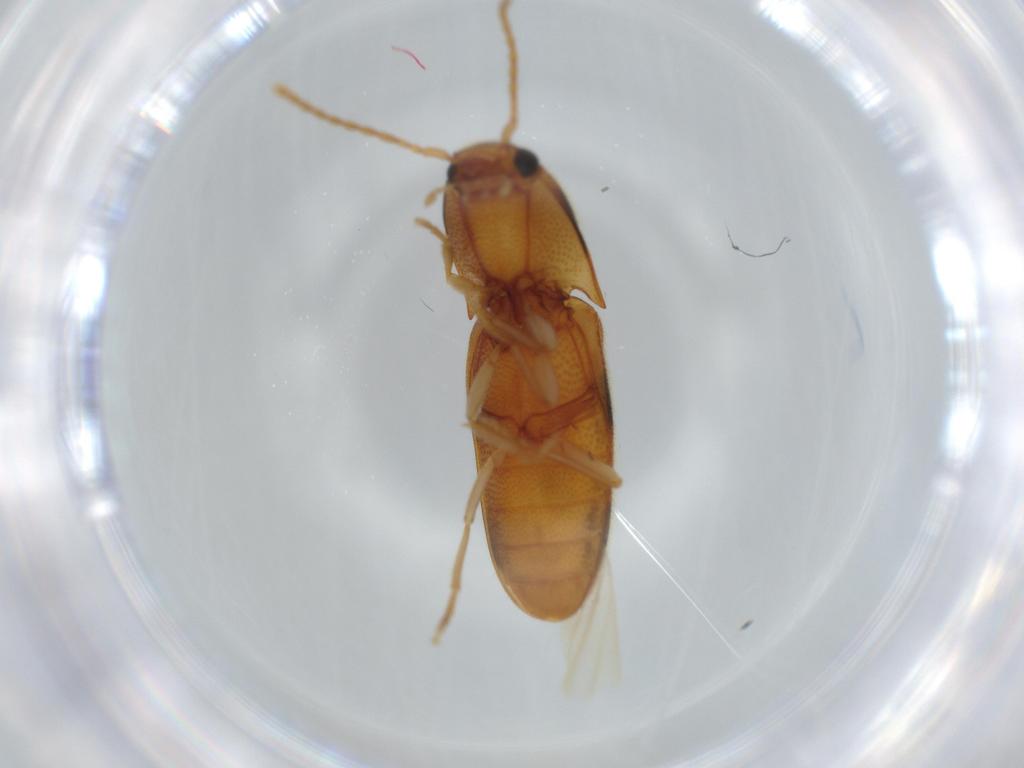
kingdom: Animalia
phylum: Arthropoda
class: Insecta
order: Coleoptera
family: Elateridae
